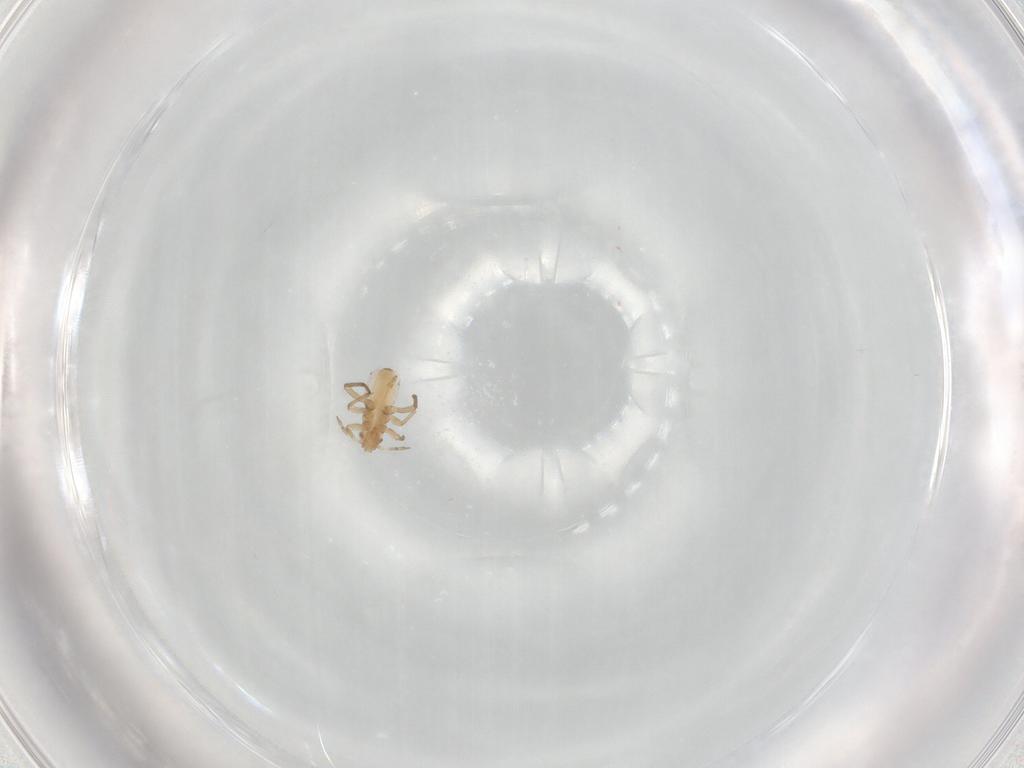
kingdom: Animalia
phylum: Arthropoda
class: Insecta
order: Hemiptera
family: Aphididae
